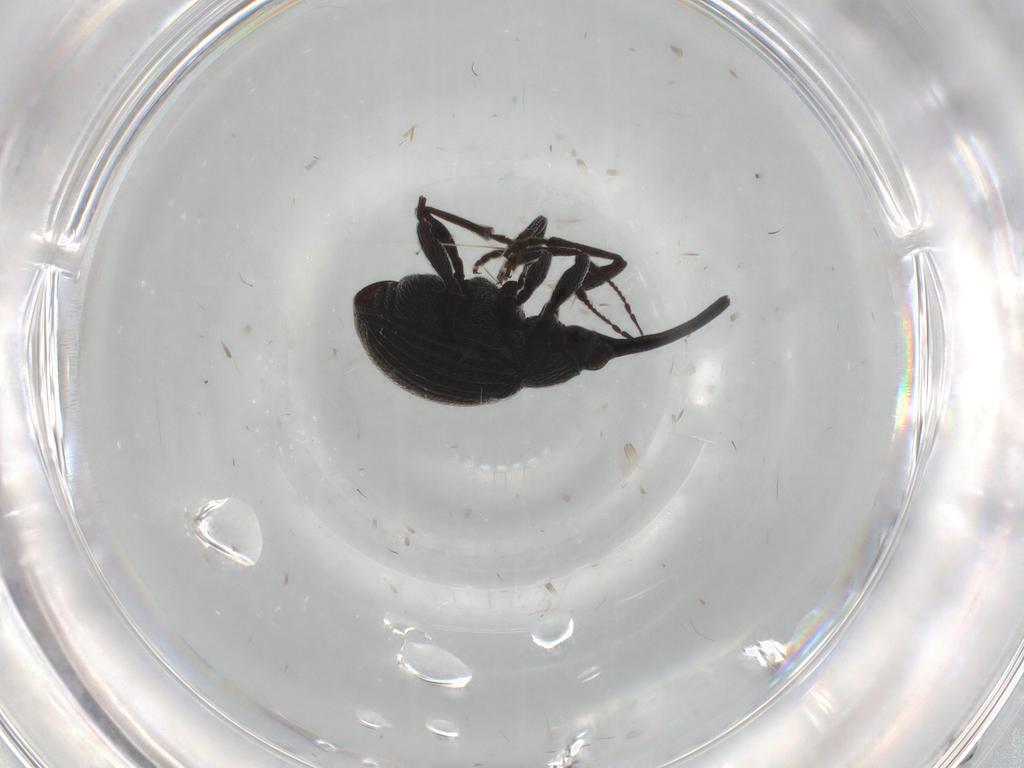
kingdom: Animalia
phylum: Arthropoda
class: Insecta
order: Coleoptera
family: Brentidae
